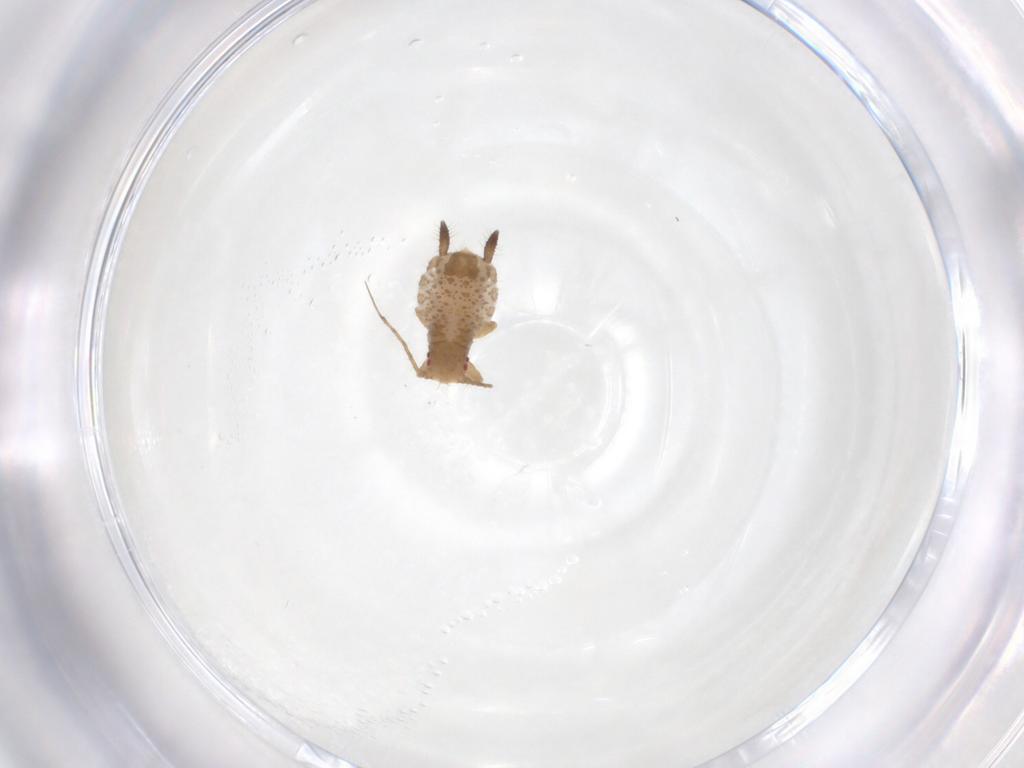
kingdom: Animalia
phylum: Arthropoda
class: Insecta
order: Hemiptera
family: Aphididae
